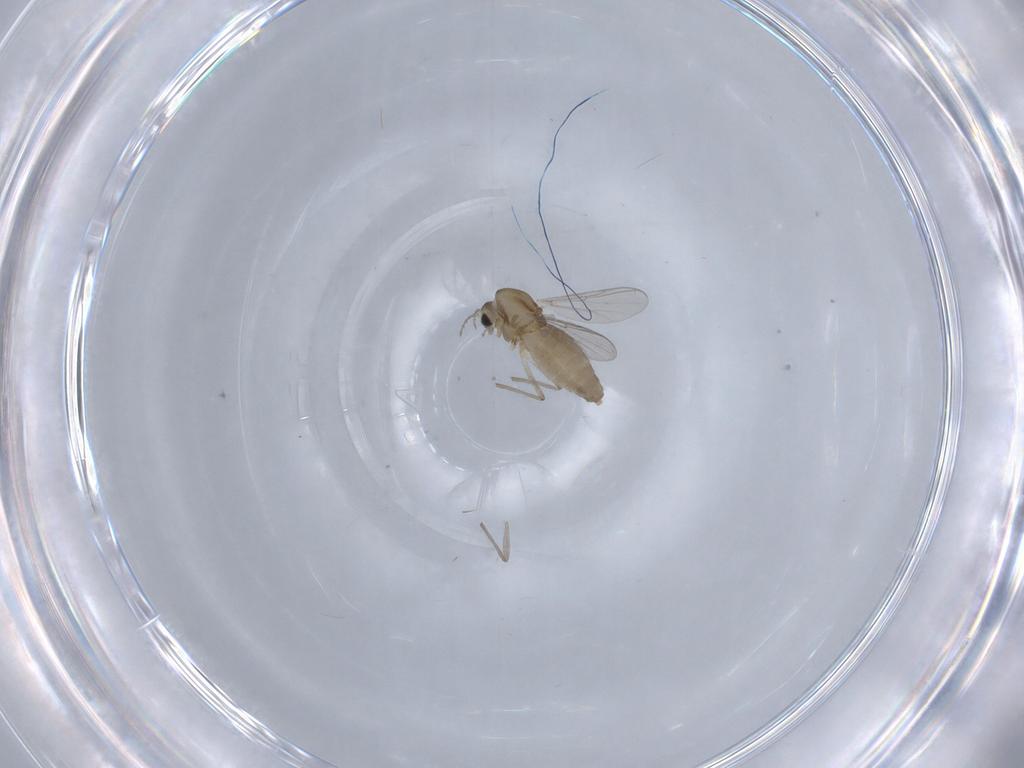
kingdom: Animalia
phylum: Arthropoda
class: Insecta
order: Diptera
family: Chironomidae
